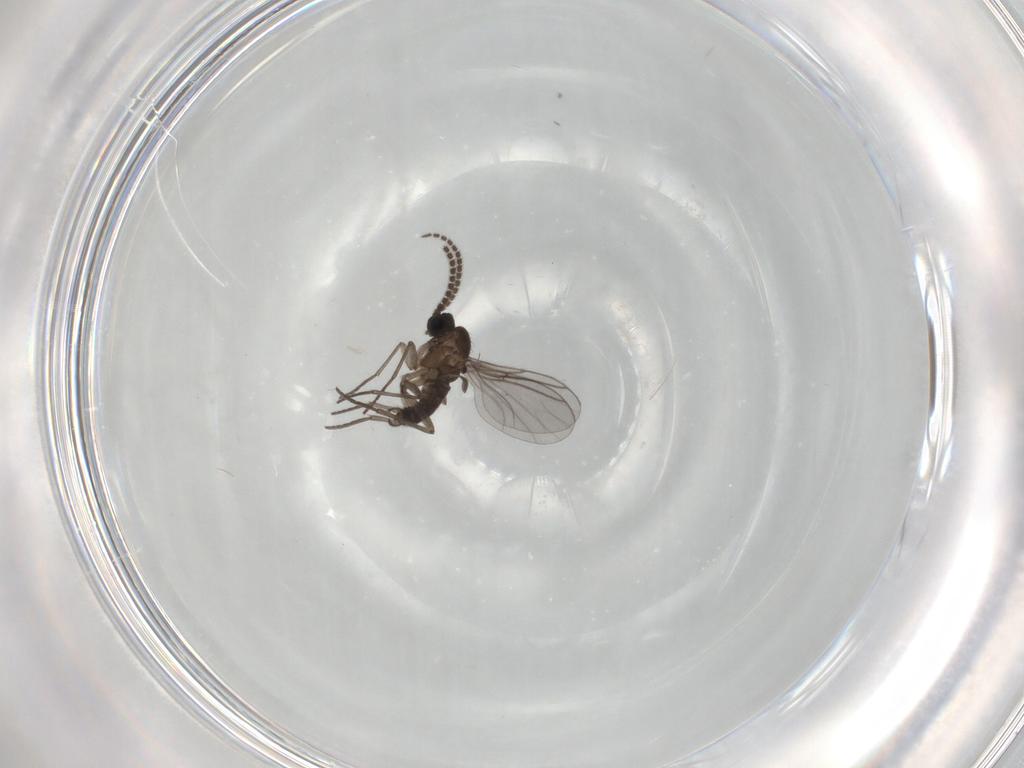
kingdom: Animalia
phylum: Arthropoda
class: Insecta
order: Diptera
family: Psychodidae
